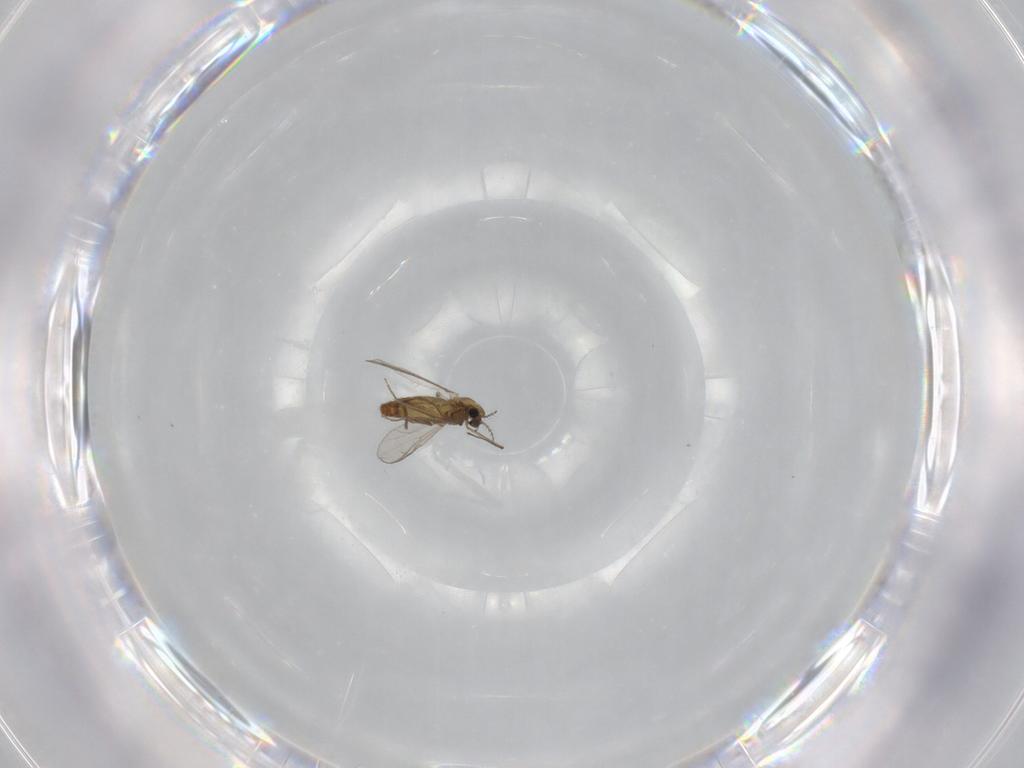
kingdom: Animalia
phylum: Arthropoda
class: Insecta
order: Diptera
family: Chironomidae
